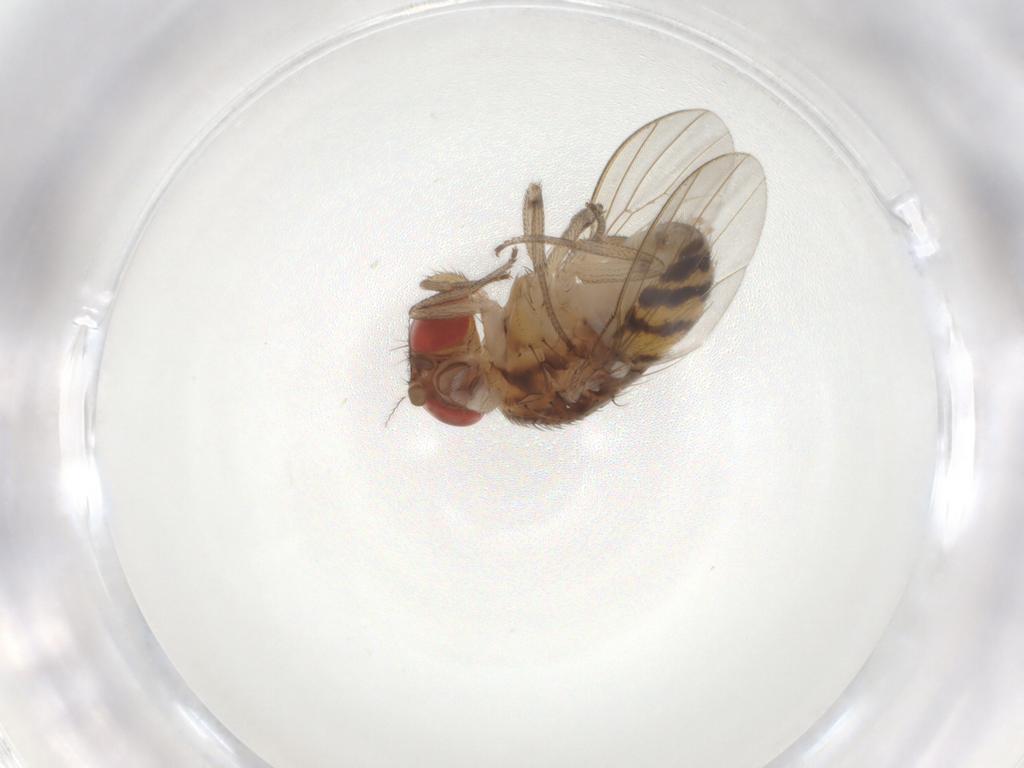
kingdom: Animalia
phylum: Arthropoda
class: Insecta
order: Diptera
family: Drosophilidae
